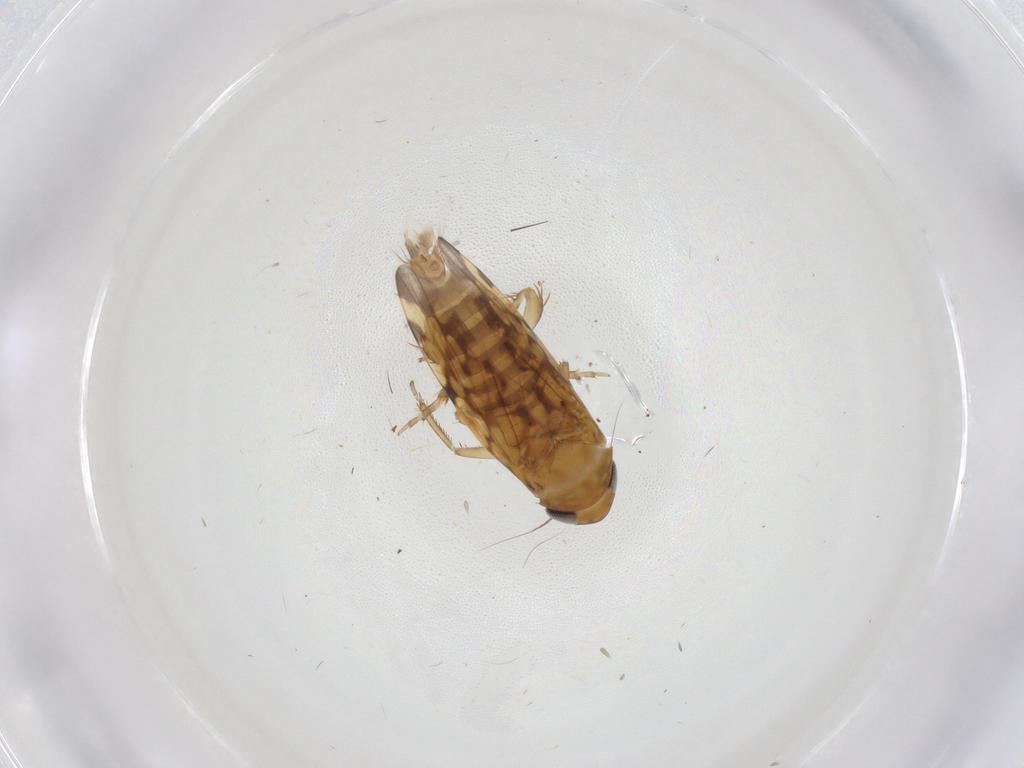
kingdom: Animalia
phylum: Arthropoda
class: Insecta
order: Hemiptera
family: Cicadellidae
